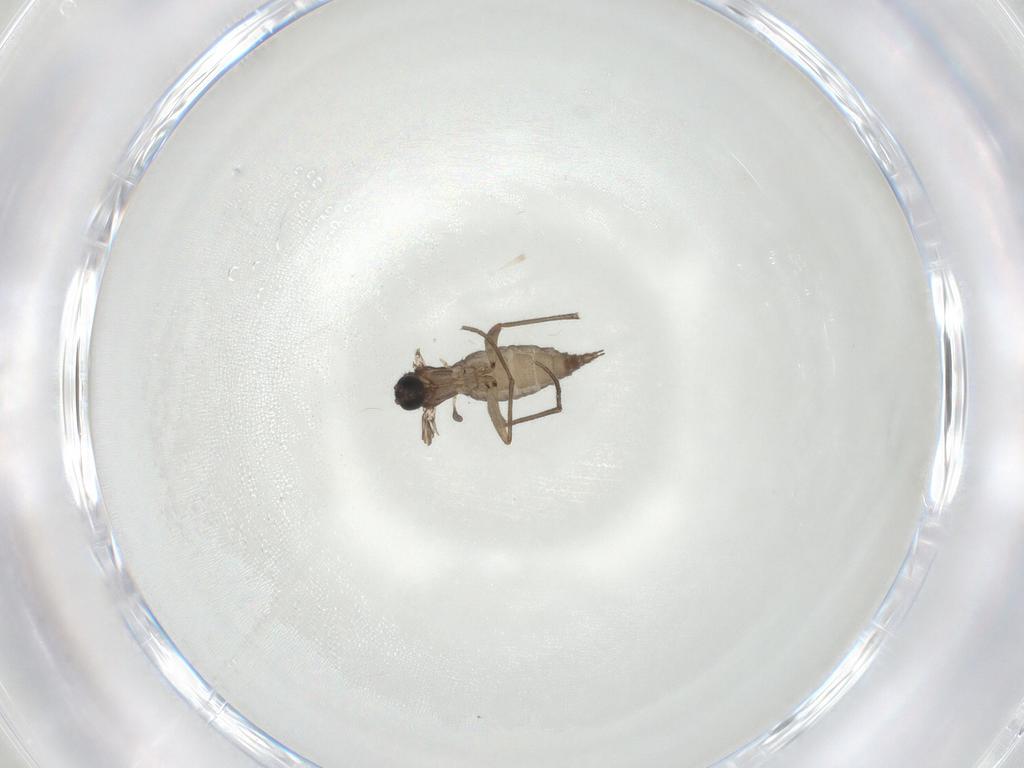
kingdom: Animalia
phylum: Arthropoda
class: Insecta
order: Diptera
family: Sciaridae
